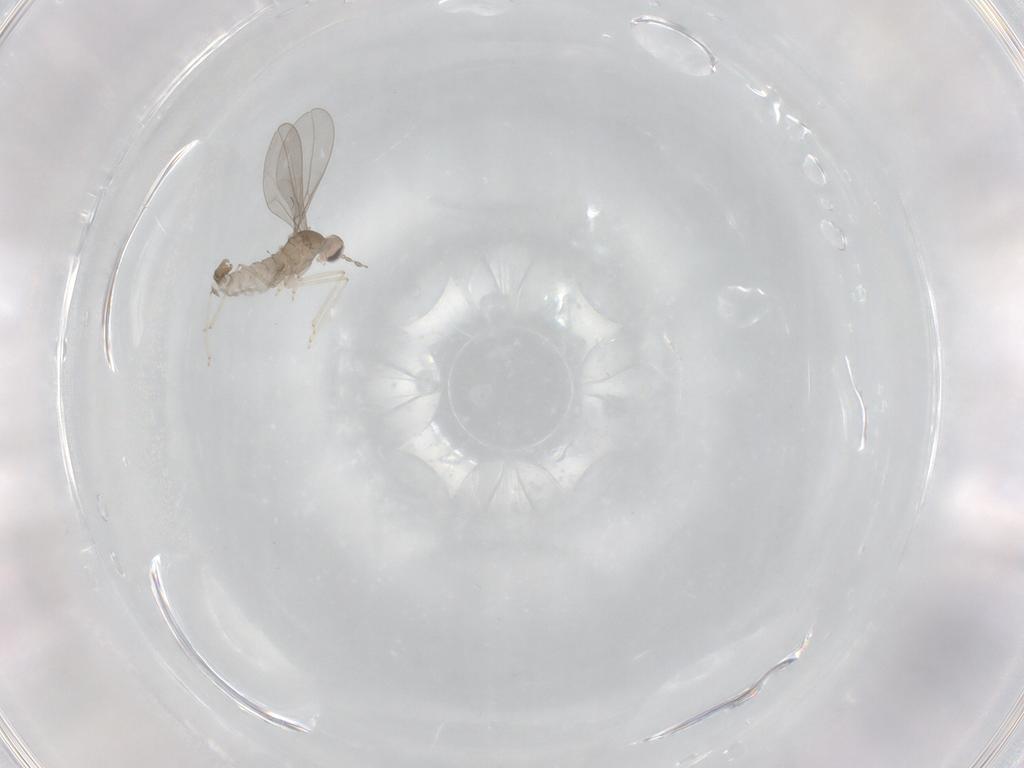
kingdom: Animalia
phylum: Arthropoda
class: Insecta
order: Diptera
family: Cecidomyiidae
